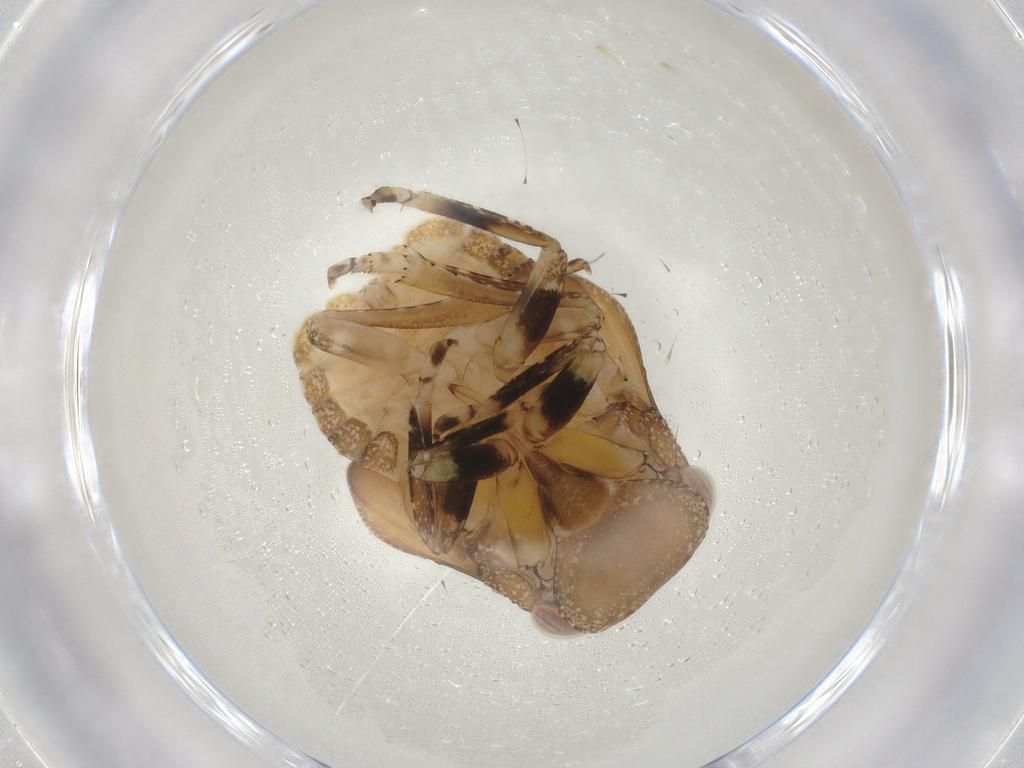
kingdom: Animalia
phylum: Arthropoda
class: Insecta
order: Hemiptera
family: Fulgoroidea_incertae_sedis
